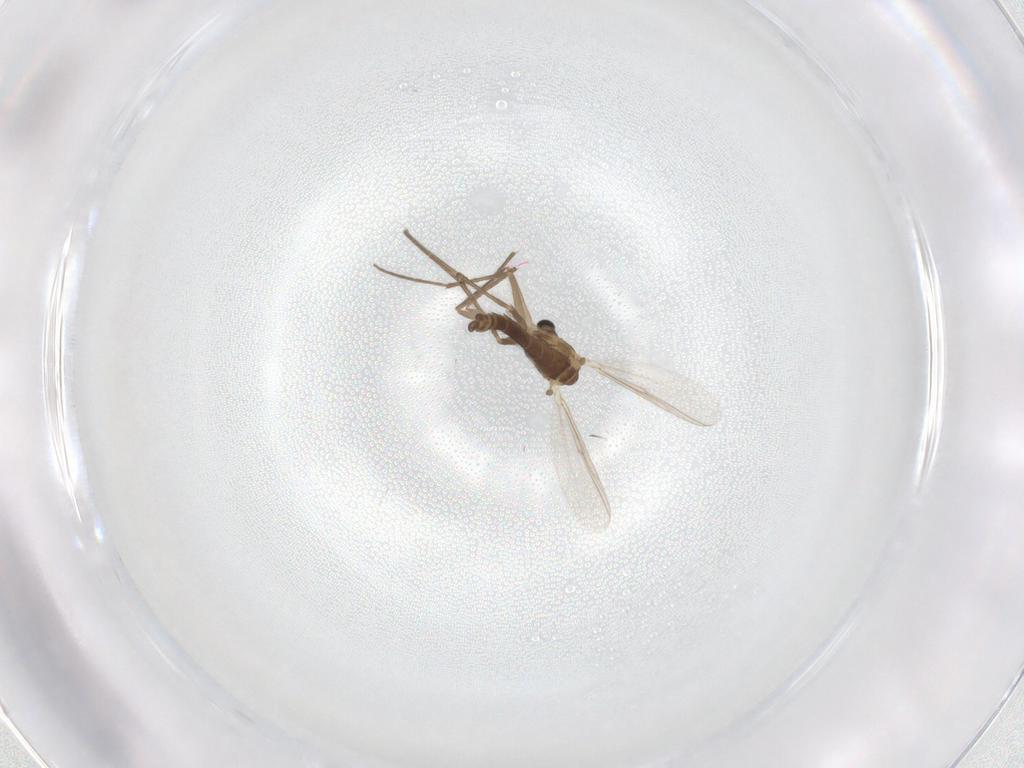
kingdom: Animalia
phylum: Arthropoda
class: Insecta
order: Diptera
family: Chironomidae
